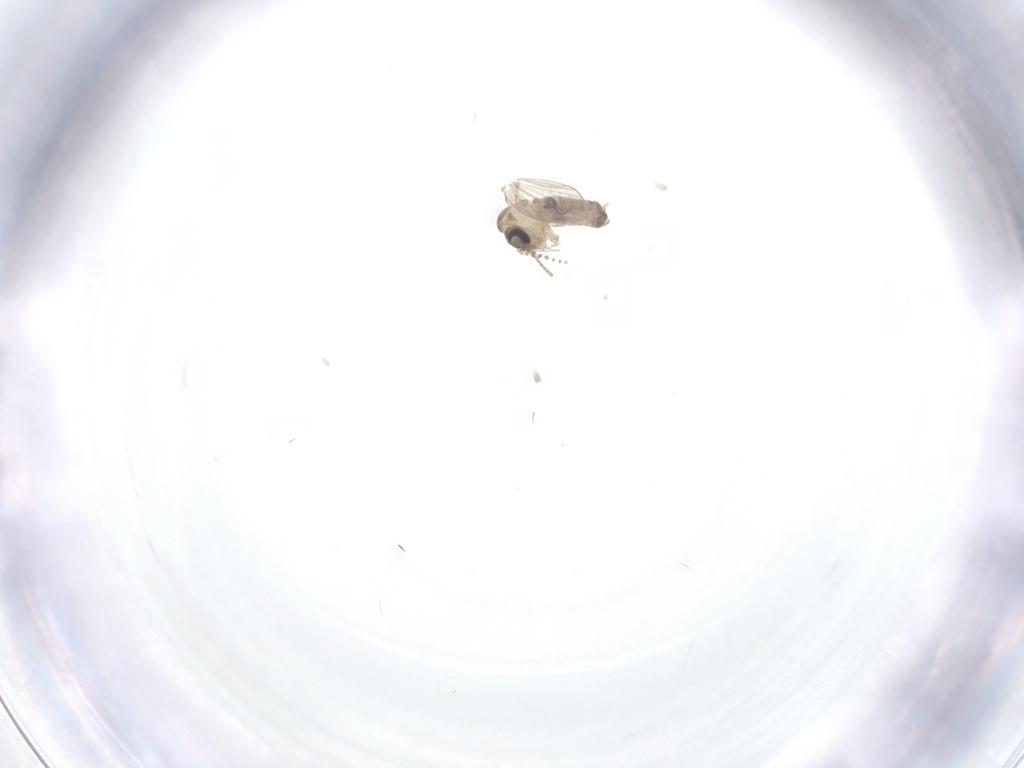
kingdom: Animalia
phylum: Arthropoda
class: Insecta
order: Diptera
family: Psychodidae
